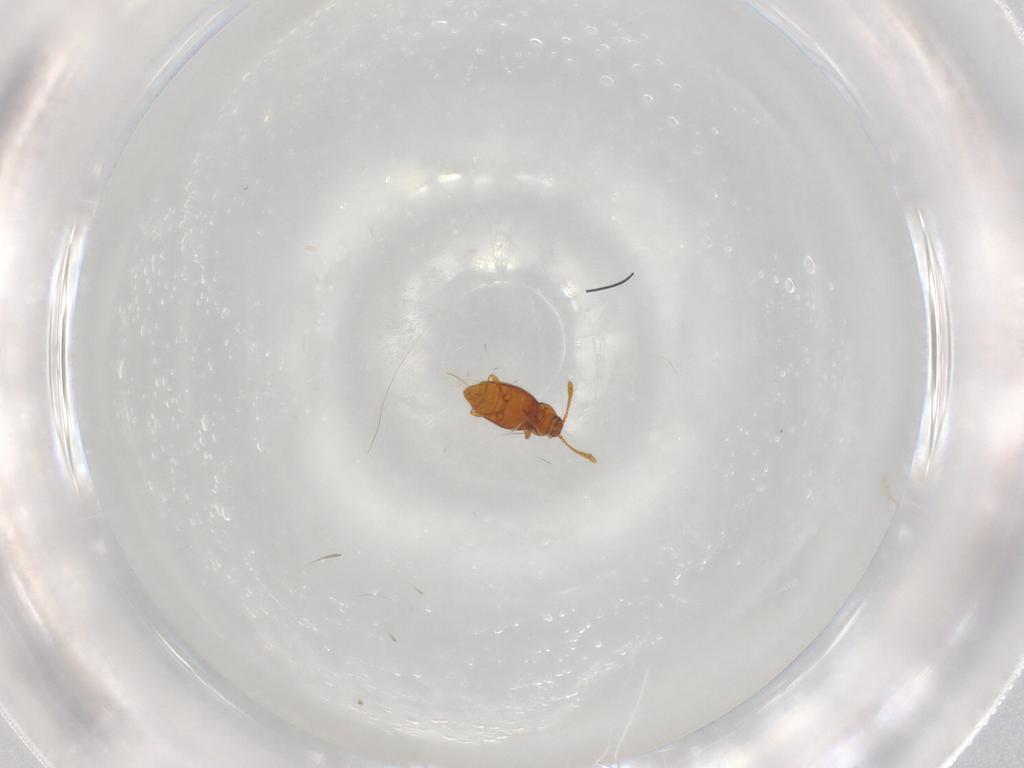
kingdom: Animalia
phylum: Arthropoda
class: Insecta
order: Coleoptera
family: Staphylinidae
